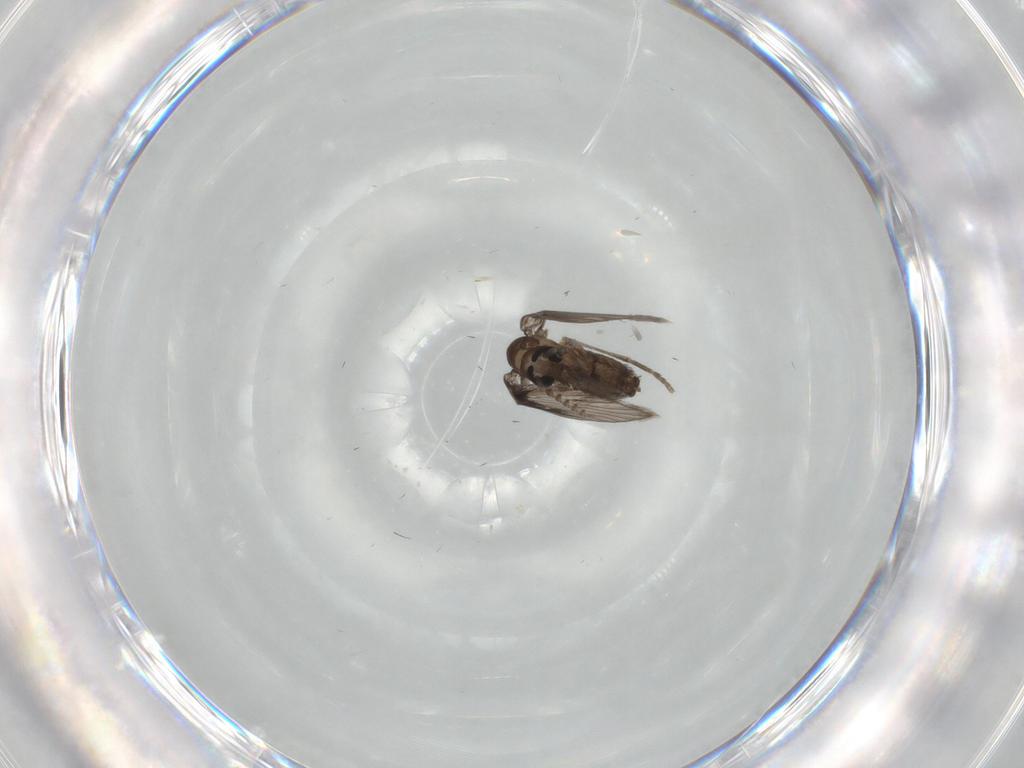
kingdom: Animalia
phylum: Arthropoda
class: Insecta
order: Diptera
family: Psychodidae
